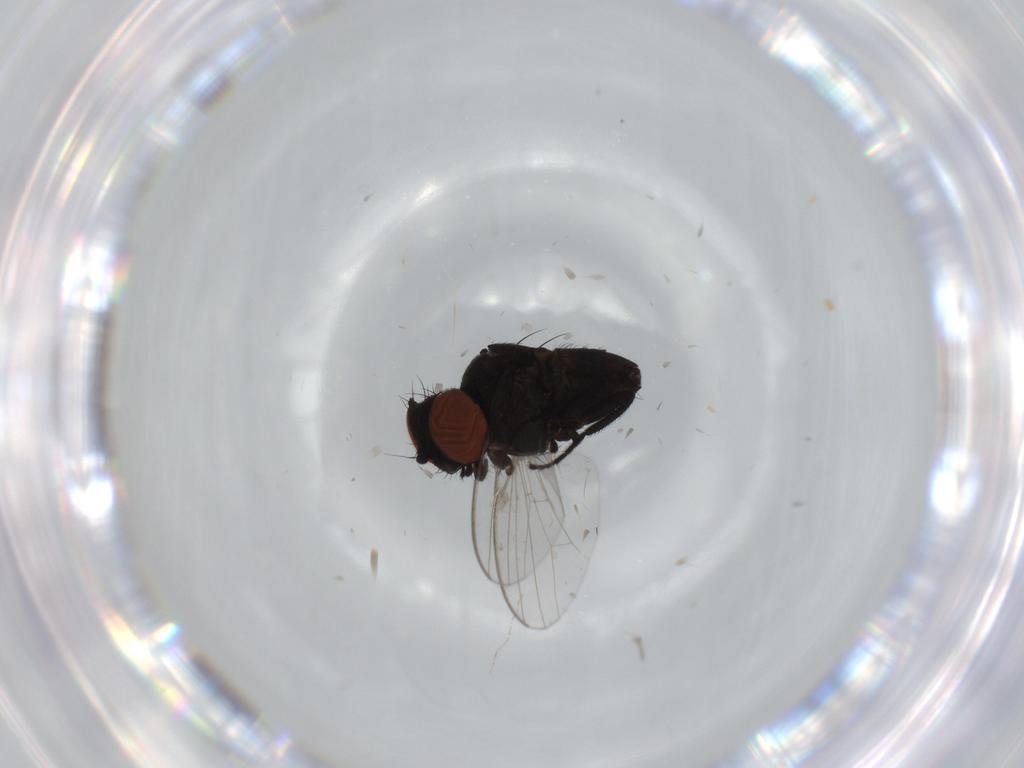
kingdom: Animalia
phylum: Arthropoda
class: Insecta
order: Diptera
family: Milichiidae
